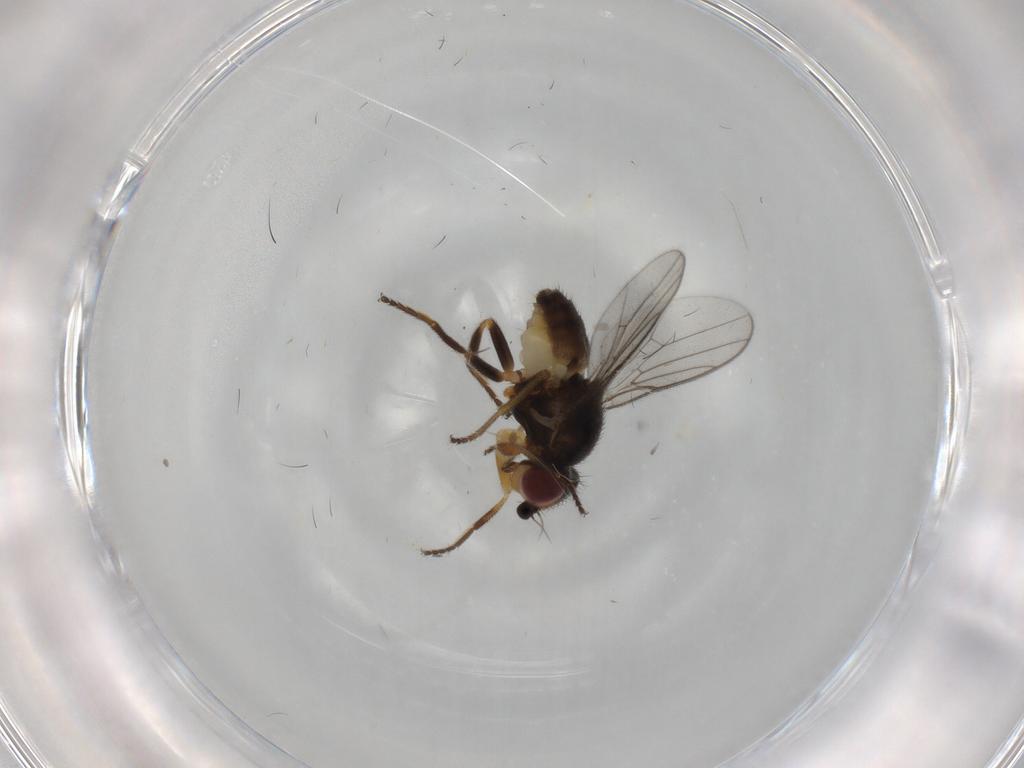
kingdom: Animalia
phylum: Arthropoda
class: Insecta
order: Diptera
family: Chloropidae
